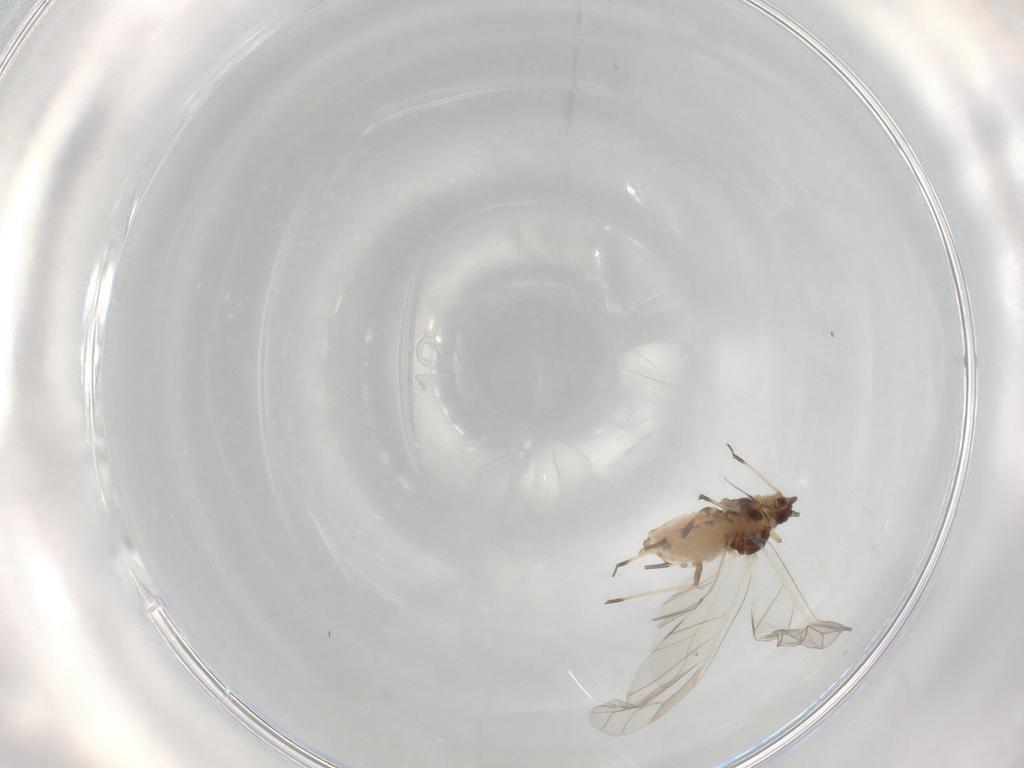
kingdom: Animalia
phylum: Arthropoda
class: Insecta
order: Hemiptera
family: Aphididae
